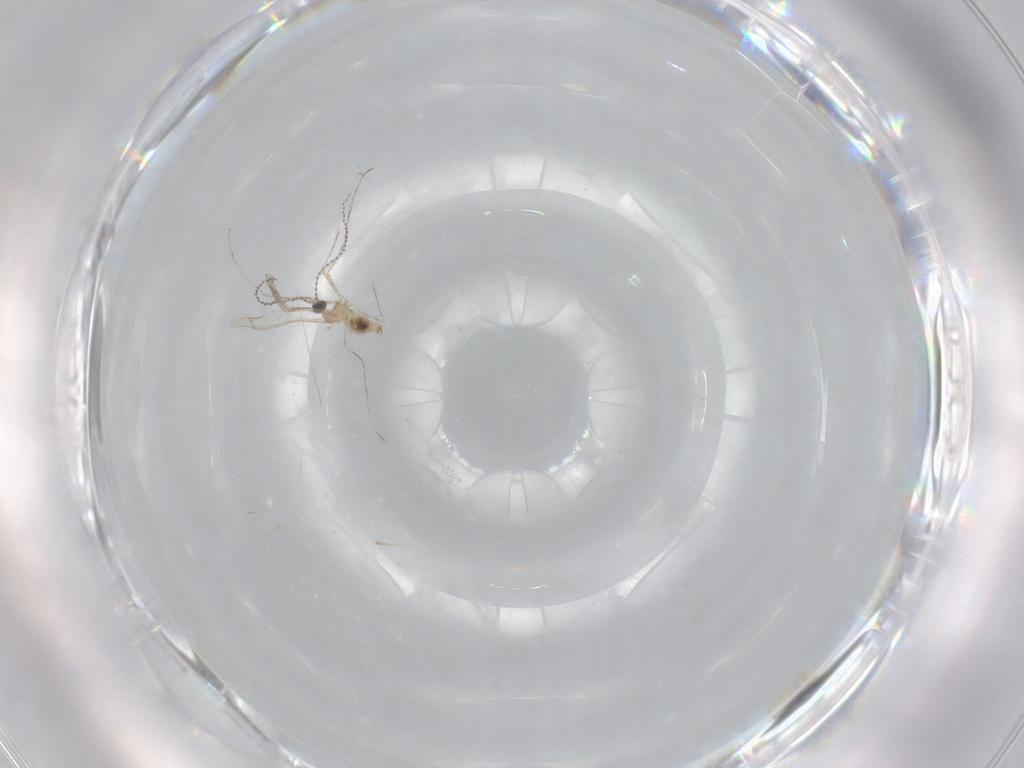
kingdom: Animalia
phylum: Arthropoda
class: Insecta
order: Diptera
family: Cecidomyiidae
